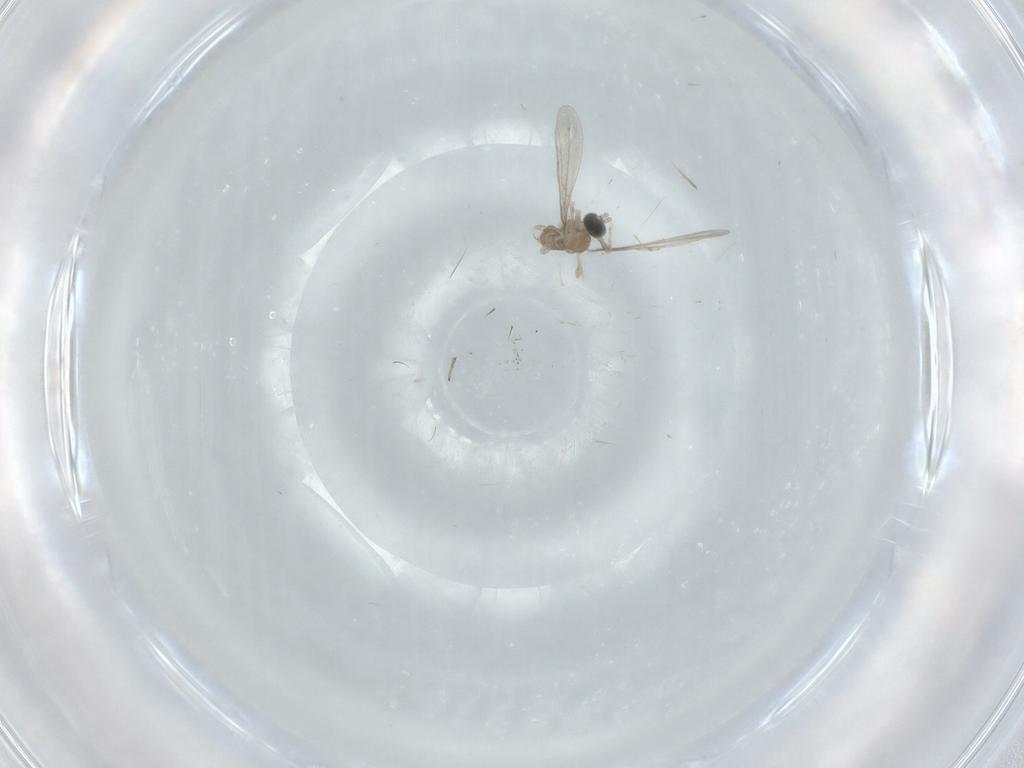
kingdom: Animalia
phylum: Arthropoda
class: Insecta
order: Diptera
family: Cecidomyiidae
